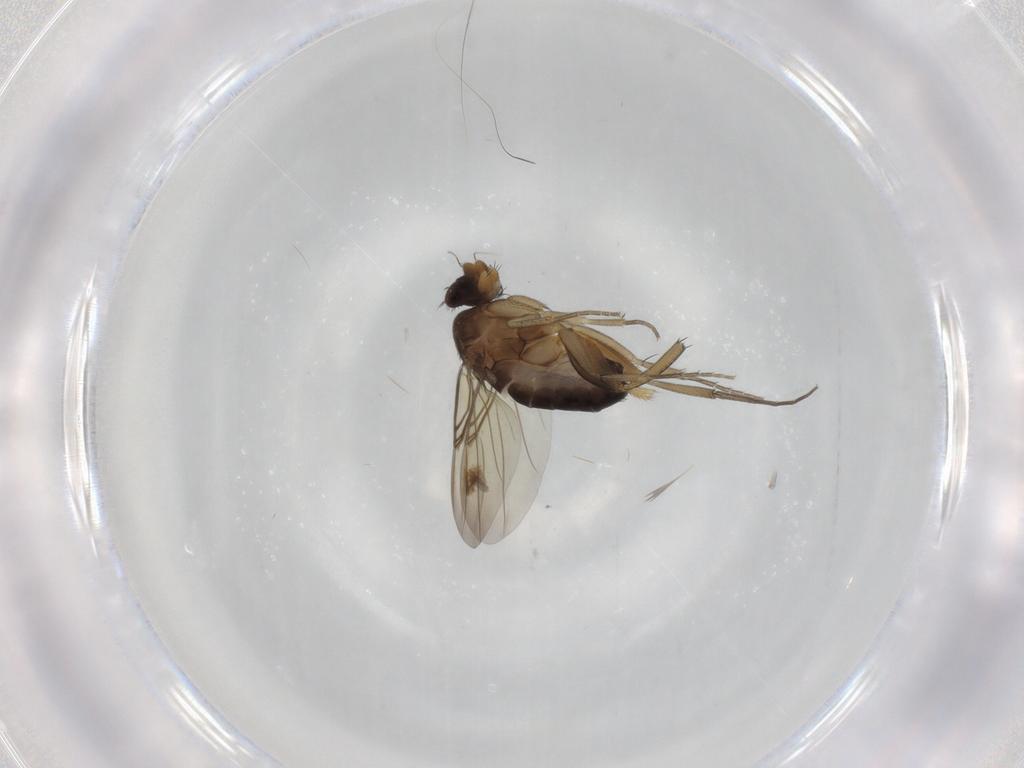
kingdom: Animalia
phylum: Arthropoda
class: Insecta
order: Diptera
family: Phoridae
